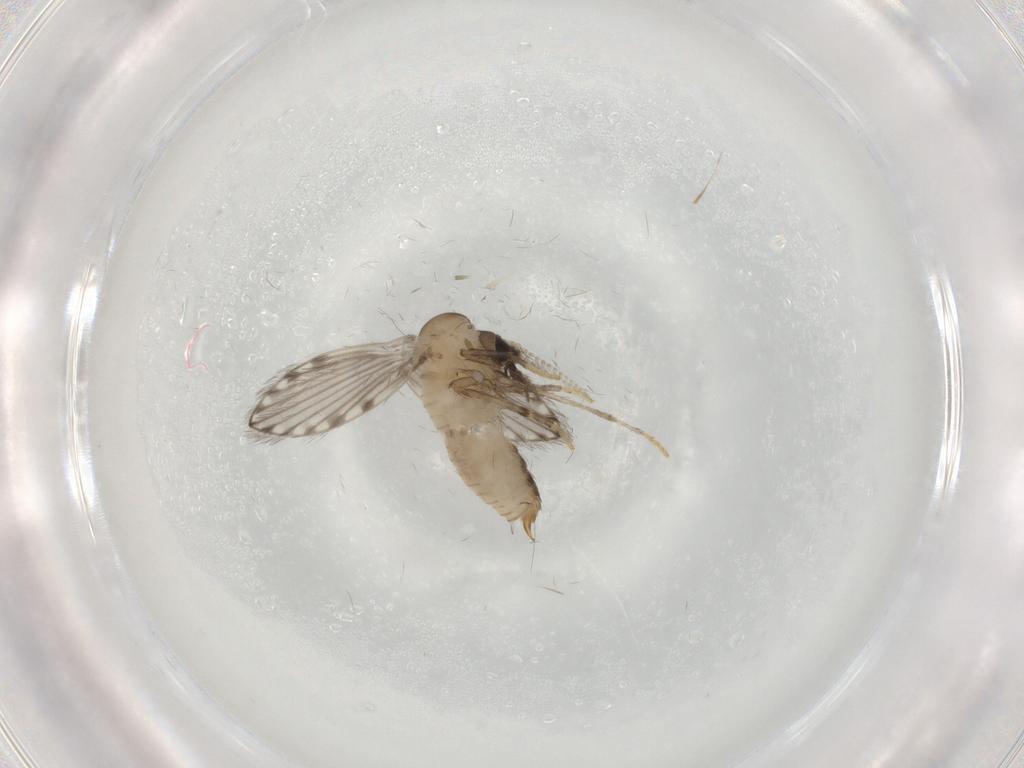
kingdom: Animalia
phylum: Arthropoda
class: Insecta
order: Diptera
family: Psychodidae
